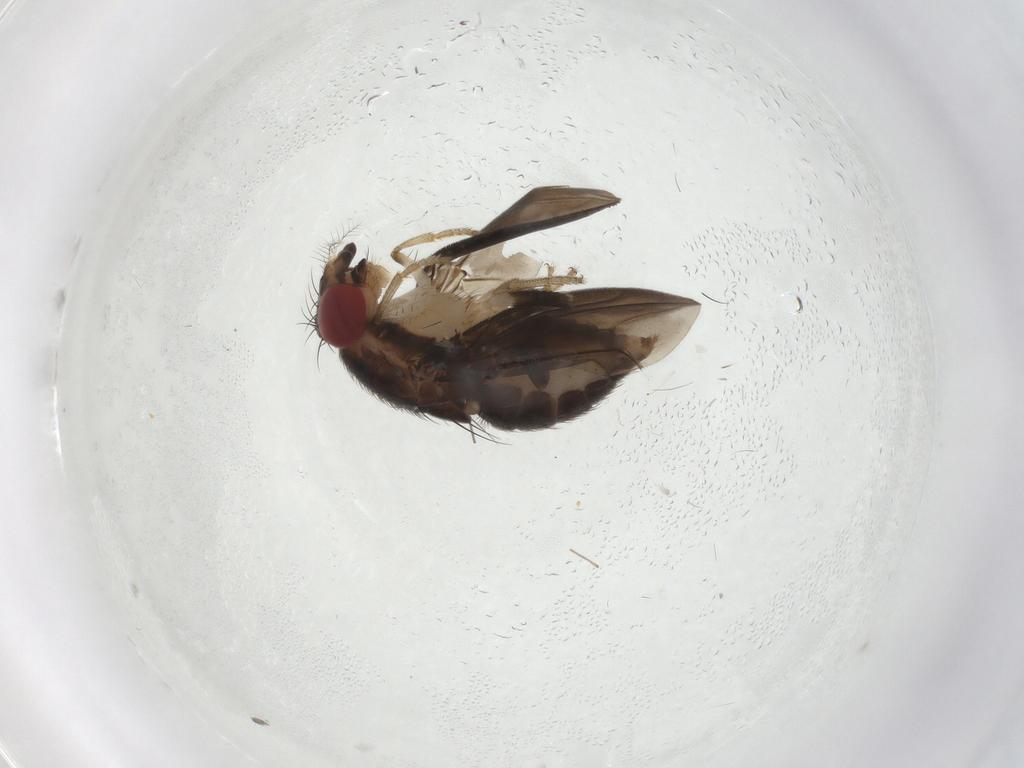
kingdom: Animalia
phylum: Arthropoda
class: Insecta
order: Diptera
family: Drosophilidae
